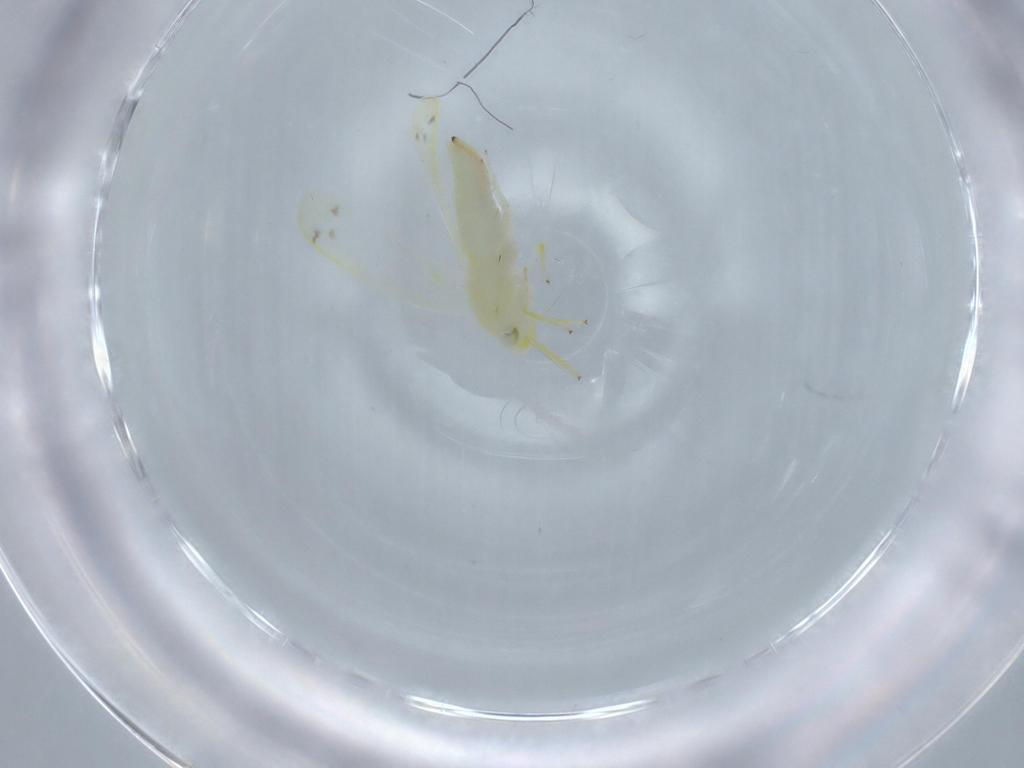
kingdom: Animalia
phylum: Arthropoda
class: Insecta
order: Hemiptera
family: Cicadellidae
